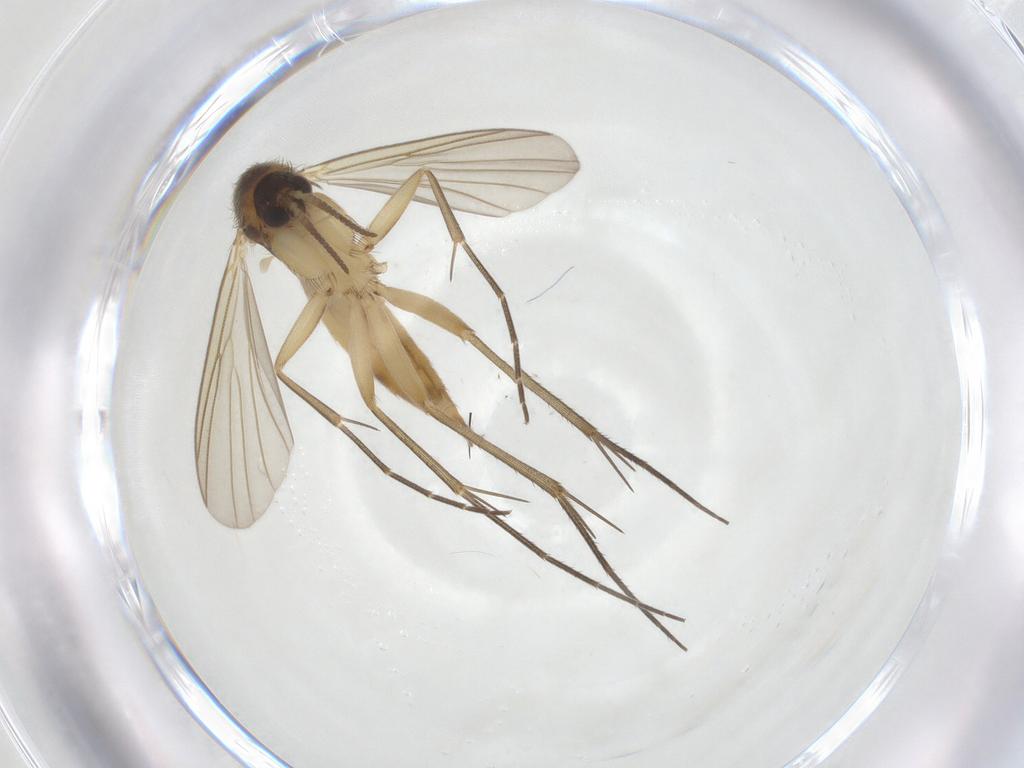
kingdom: Animalia
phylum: Arthropoda
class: Insecta
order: Diptera
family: Mycetophilidae
